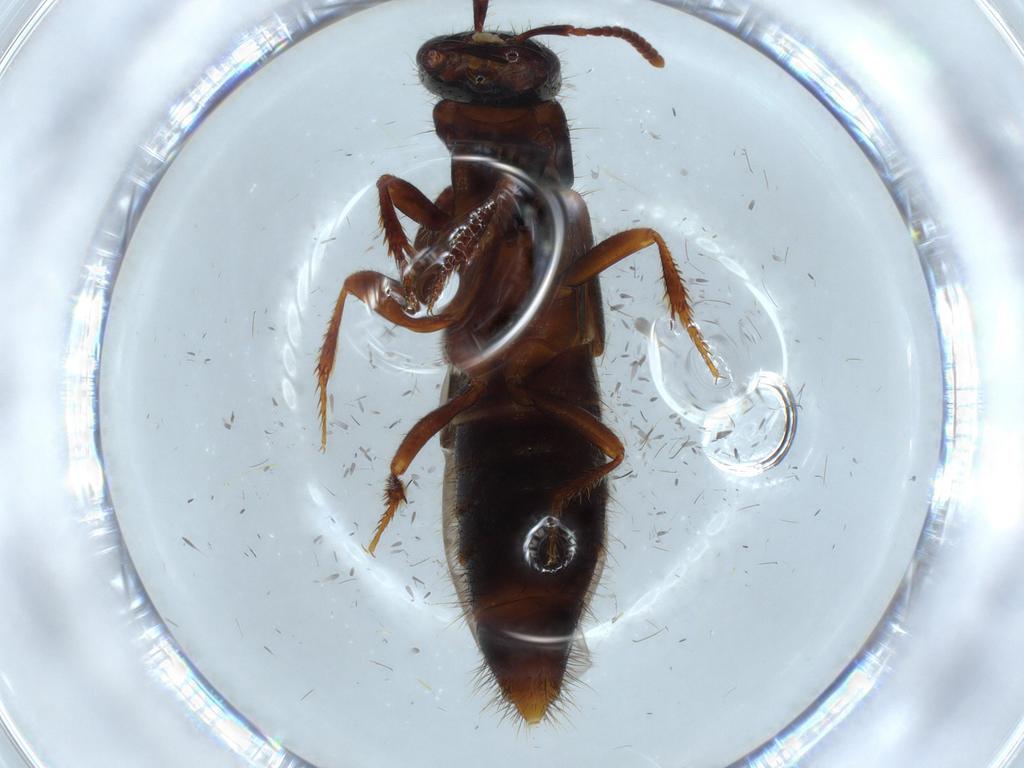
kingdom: Animalia
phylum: Arthropoda
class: Insecta
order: Coleoptera
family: Staphylinidae
